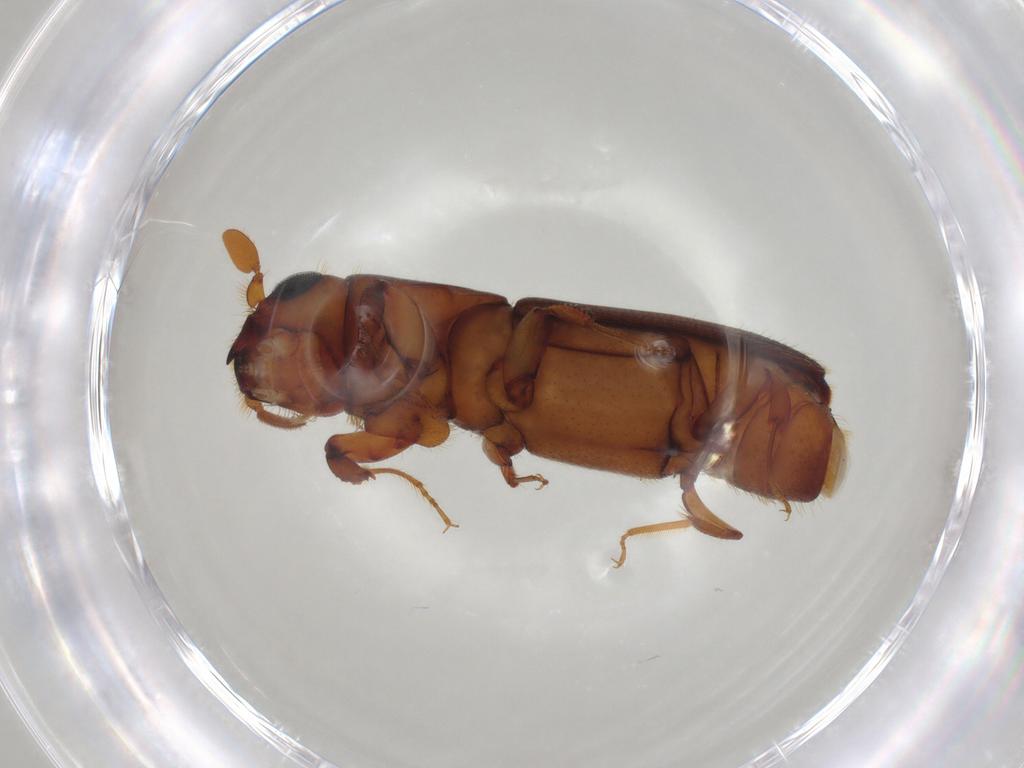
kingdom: Animalia
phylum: Arthropoda
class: Insecta
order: Coleoptera
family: Curculionidae
